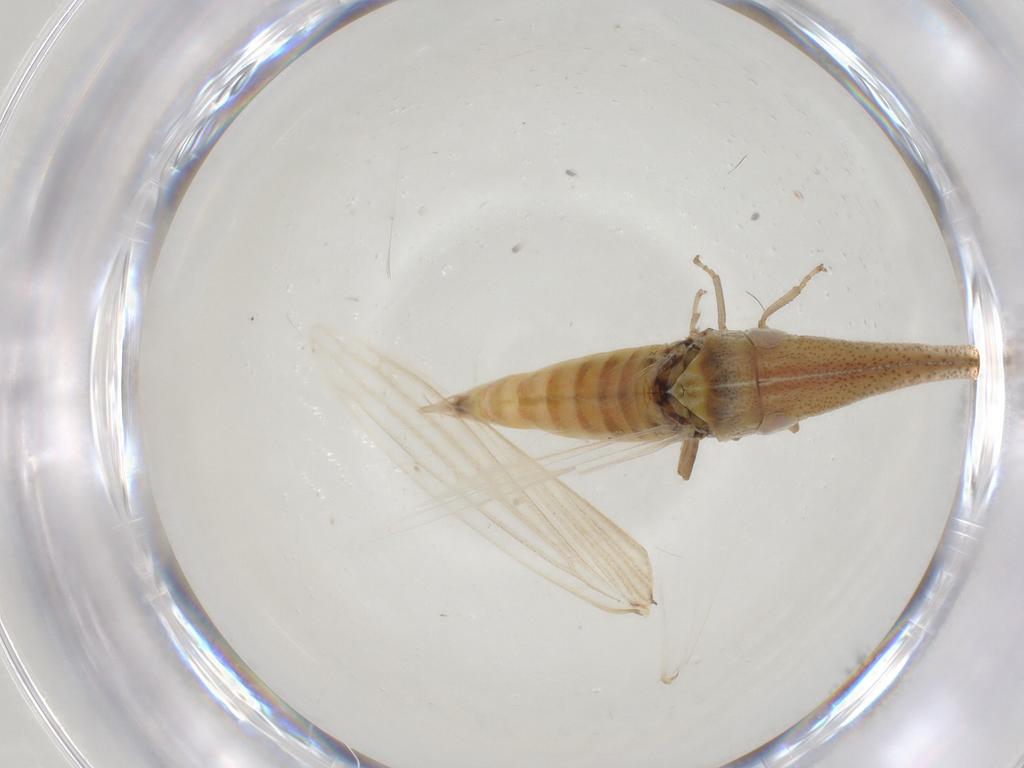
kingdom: Animalia
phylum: Arthropoda
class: Insecta
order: Hemiptera
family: Cicadellidae
